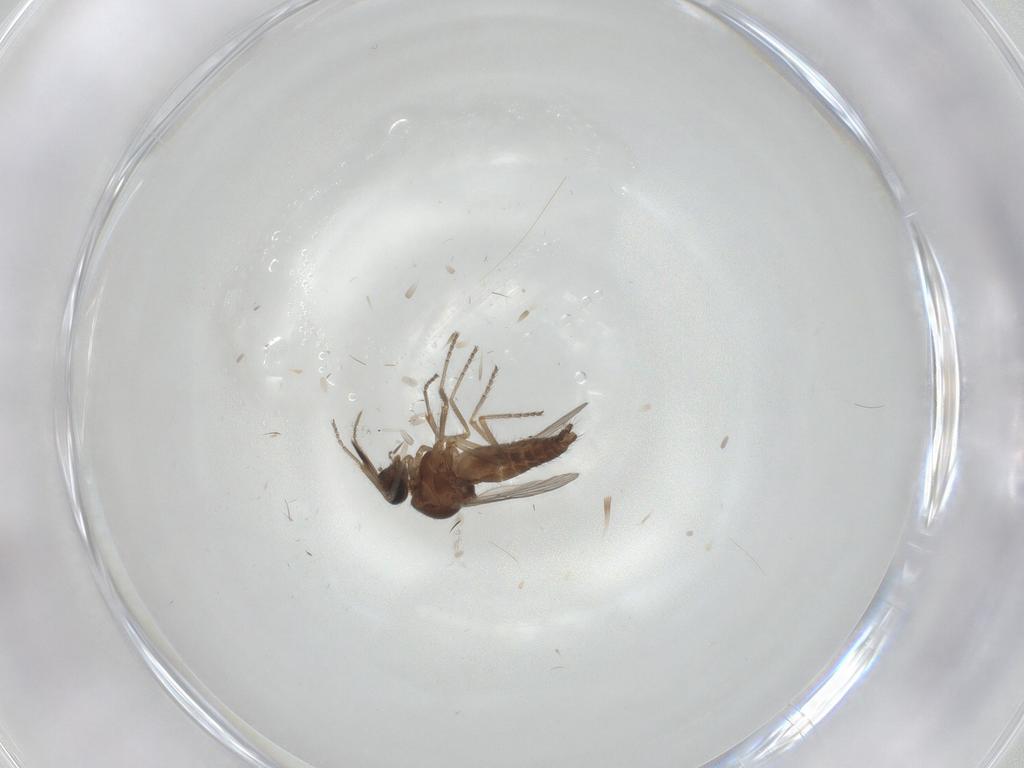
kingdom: Animalia
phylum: Arthropoda
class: Insecta
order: Diptera
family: Ceratopogonidae
